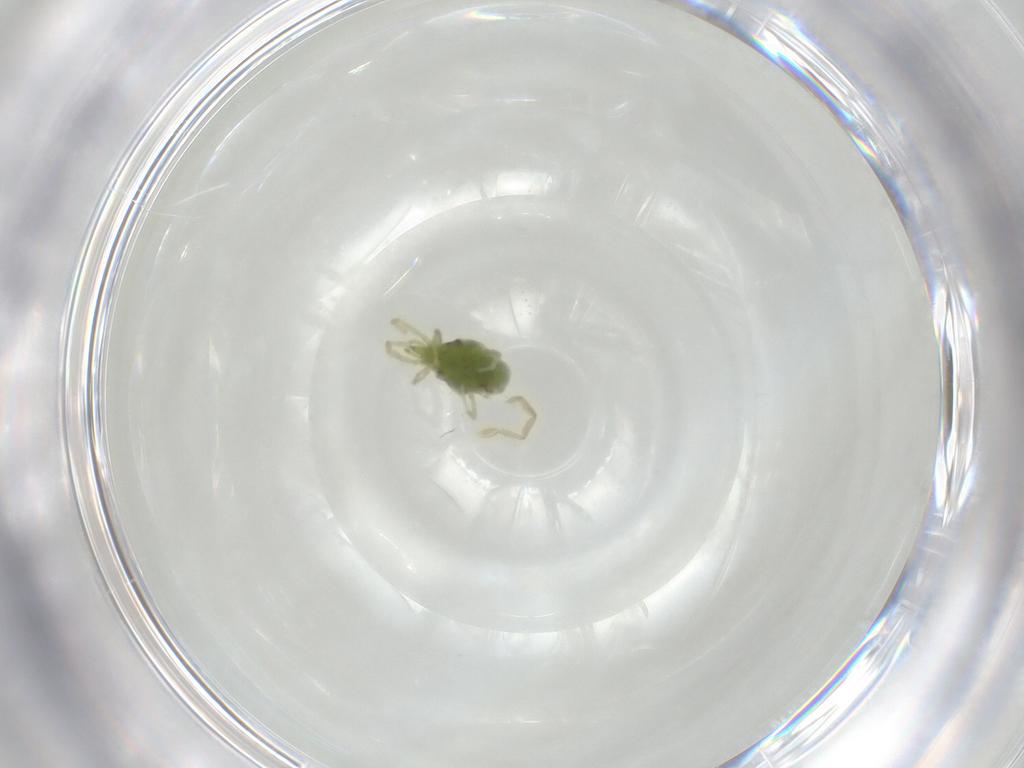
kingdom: Animalia
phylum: Arthropoda
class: Arachnida
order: Trombidiformes
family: Erythraeidae
